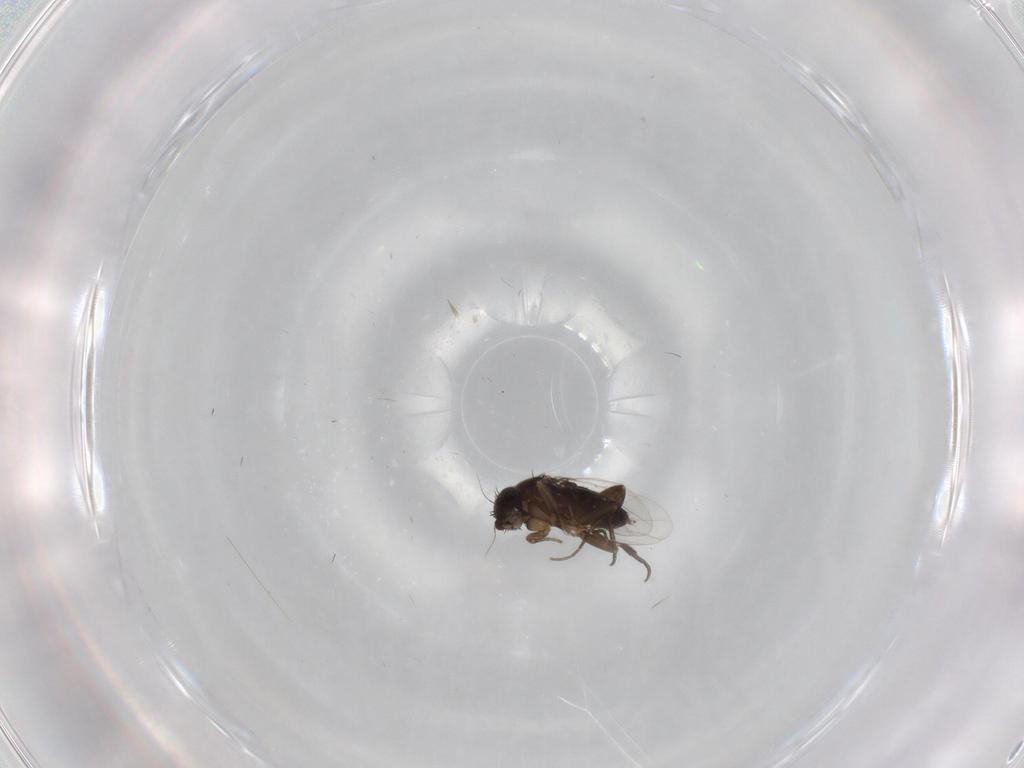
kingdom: Animalia
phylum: Arthropoda
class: Insecta
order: Diptera
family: Phoridae
